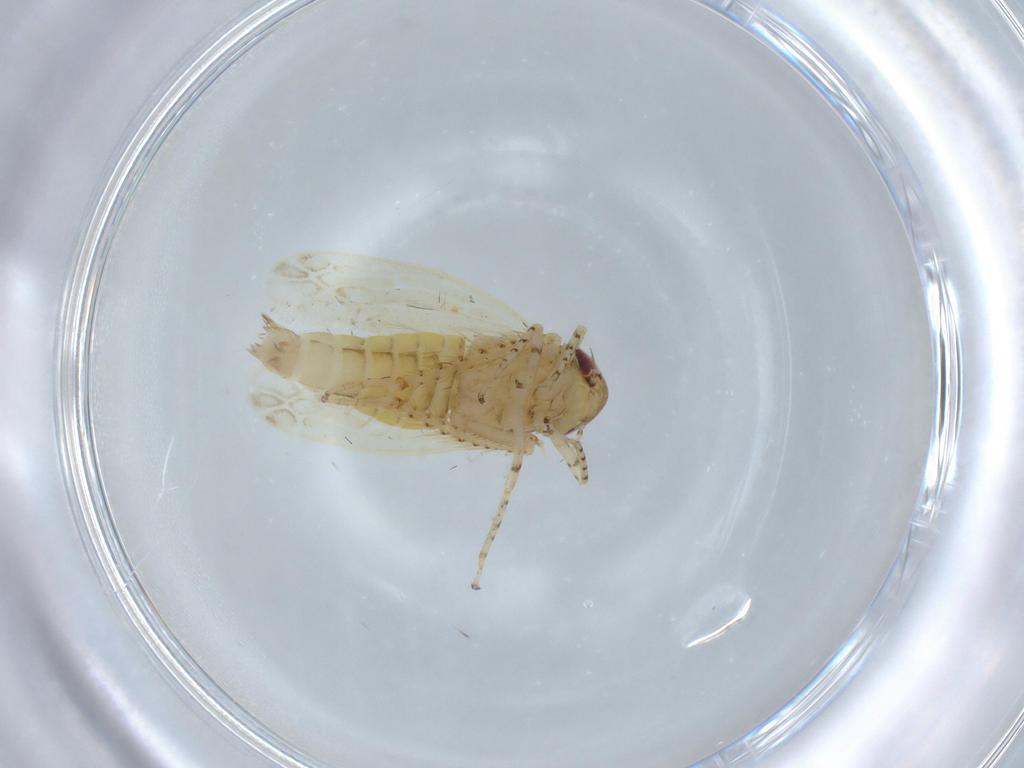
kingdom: Animalia
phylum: Arthropoda
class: Insecta
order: Hemiptera
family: Cicadellidae
